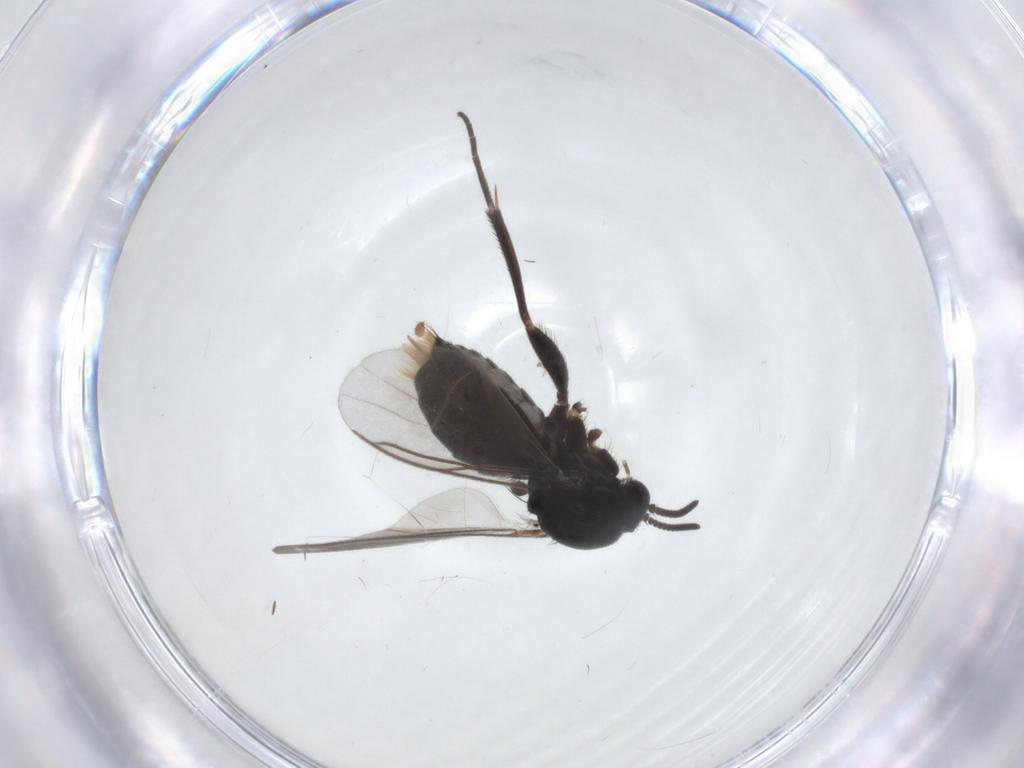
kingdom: Animalia
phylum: Arthropoda
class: Insecta
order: Diptera
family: Mycetophilidae
